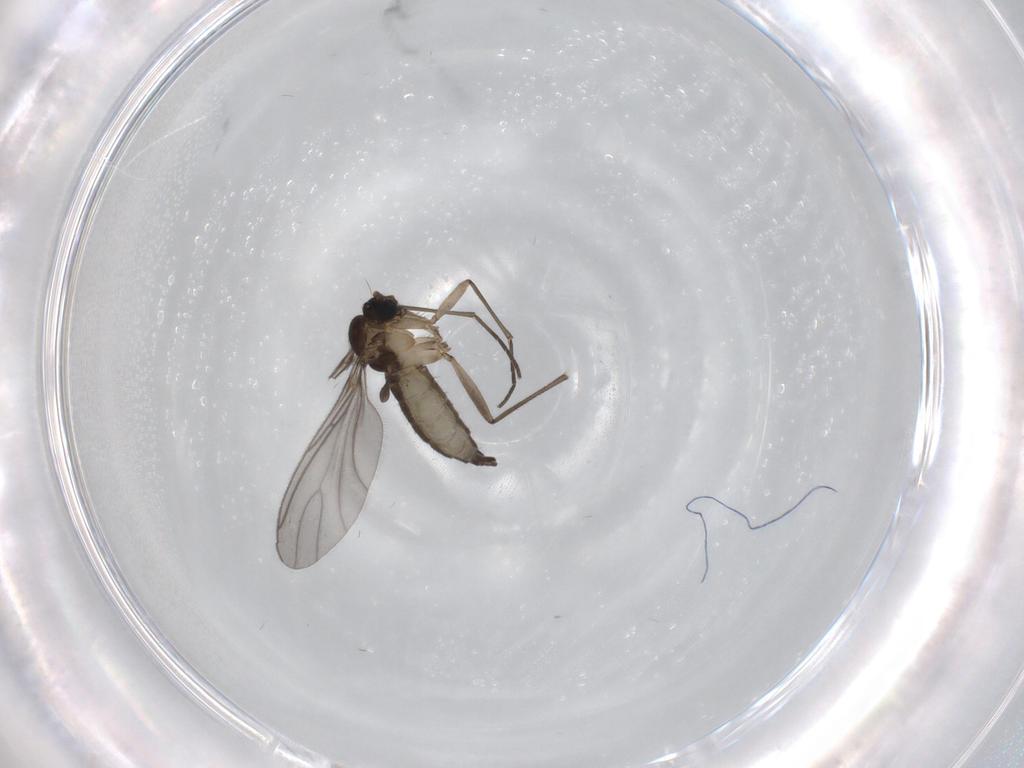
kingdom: Animalia
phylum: Arthropoda
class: Insecta
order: Diptera
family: Sciaridae
